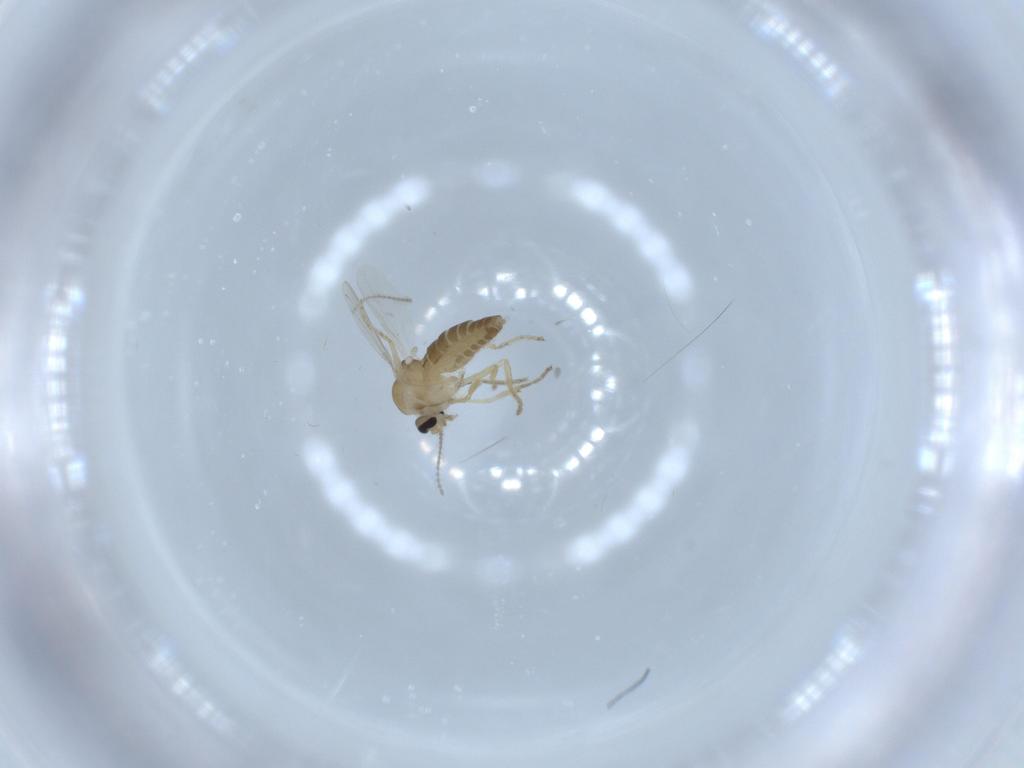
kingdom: Animalia
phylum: Arthropoda
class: Insecta
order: Diptera
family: Ceratopogonidae
